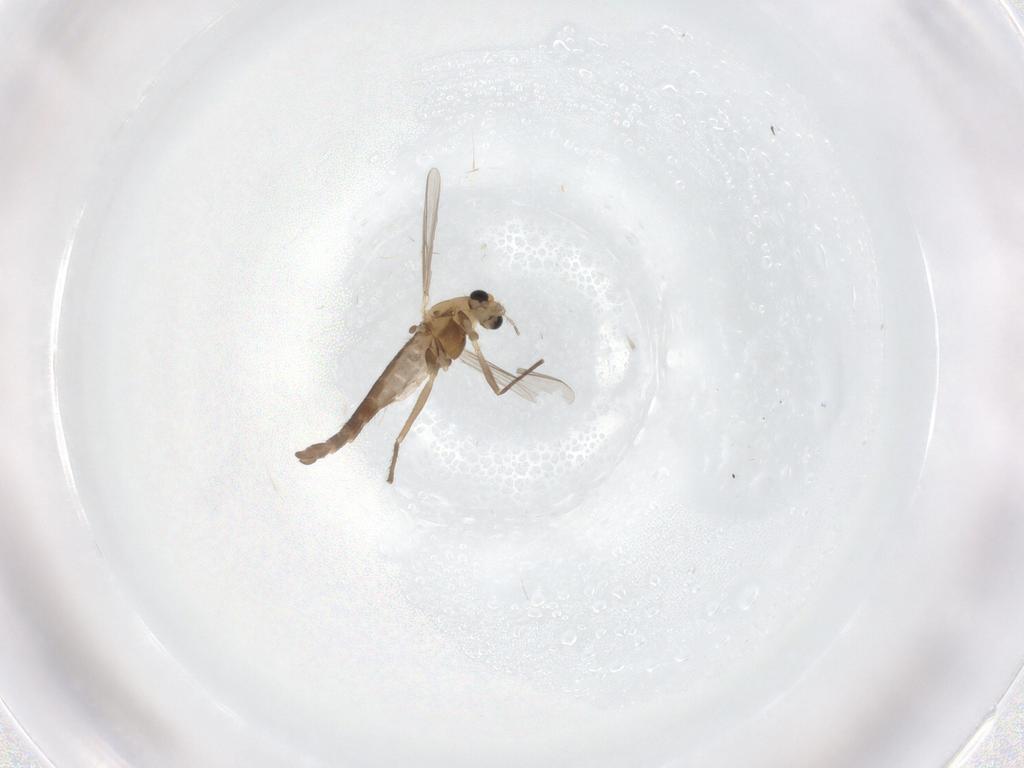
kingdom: Animalia
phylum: Arthropoda
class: Insecta
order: Diptera
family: Chironomidae
